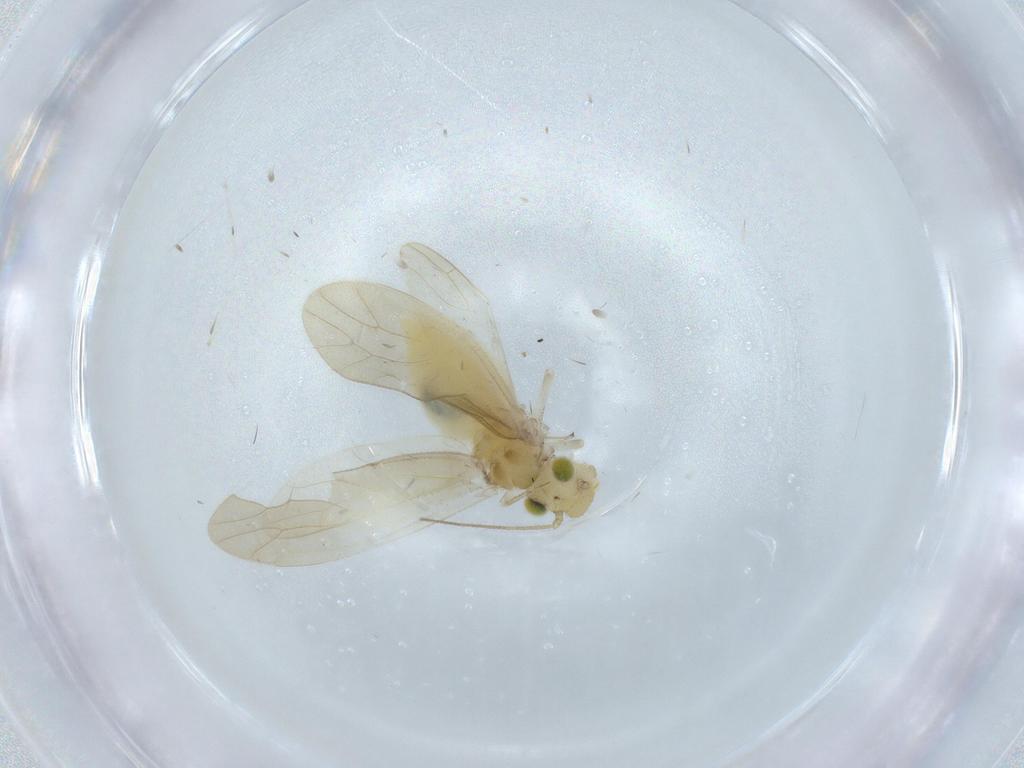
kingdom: Animalia
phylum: Arthropoda
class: Insecta
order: Psocodea
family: Caeciliusidae
